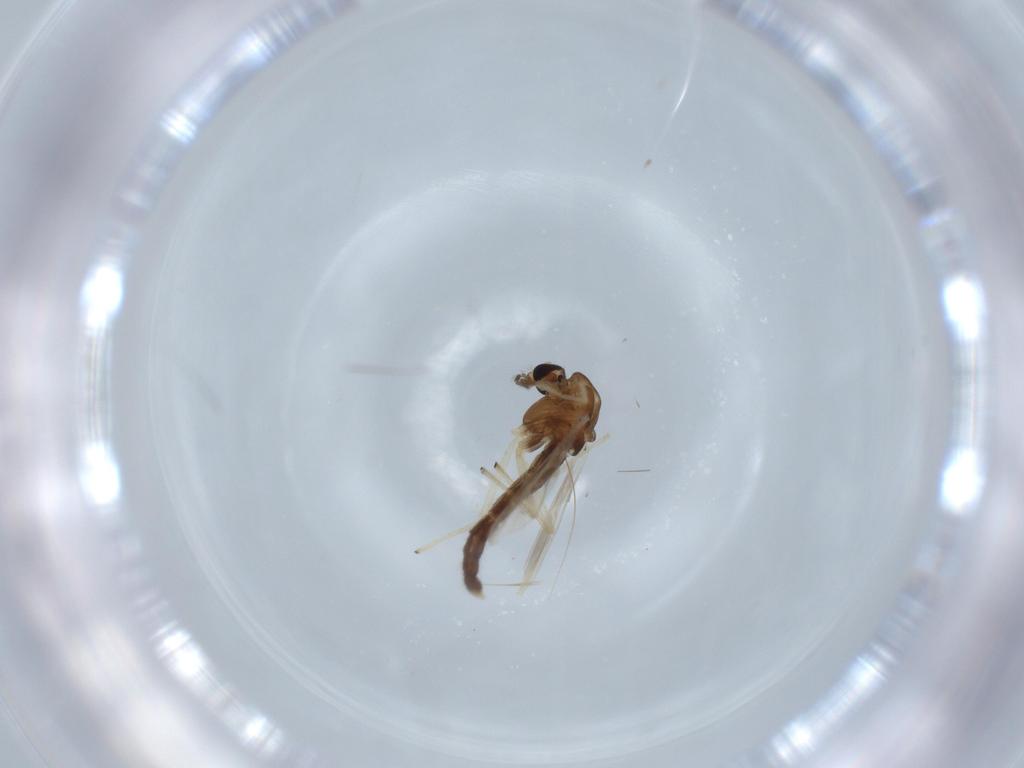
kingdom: Animalia
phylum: Arthropoda
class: Insecta
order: Diptera
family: Chironomidae
